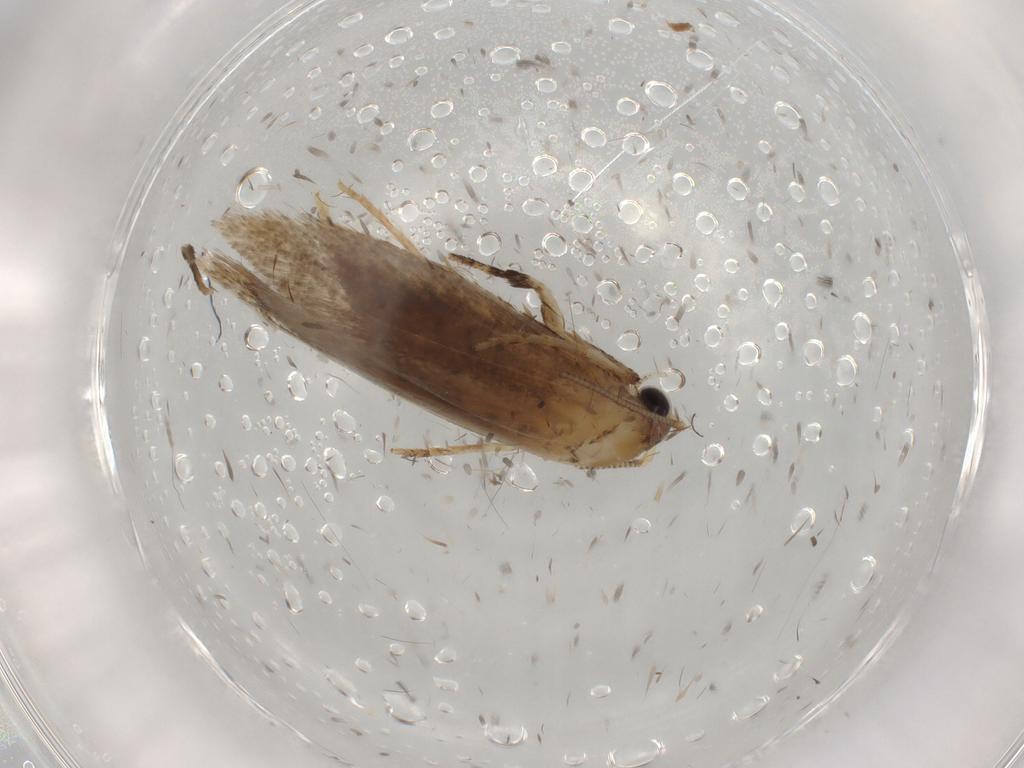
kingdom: Animalia
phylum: Arthropoda
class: Insecta
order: Lepidoptera
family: Tineidae
